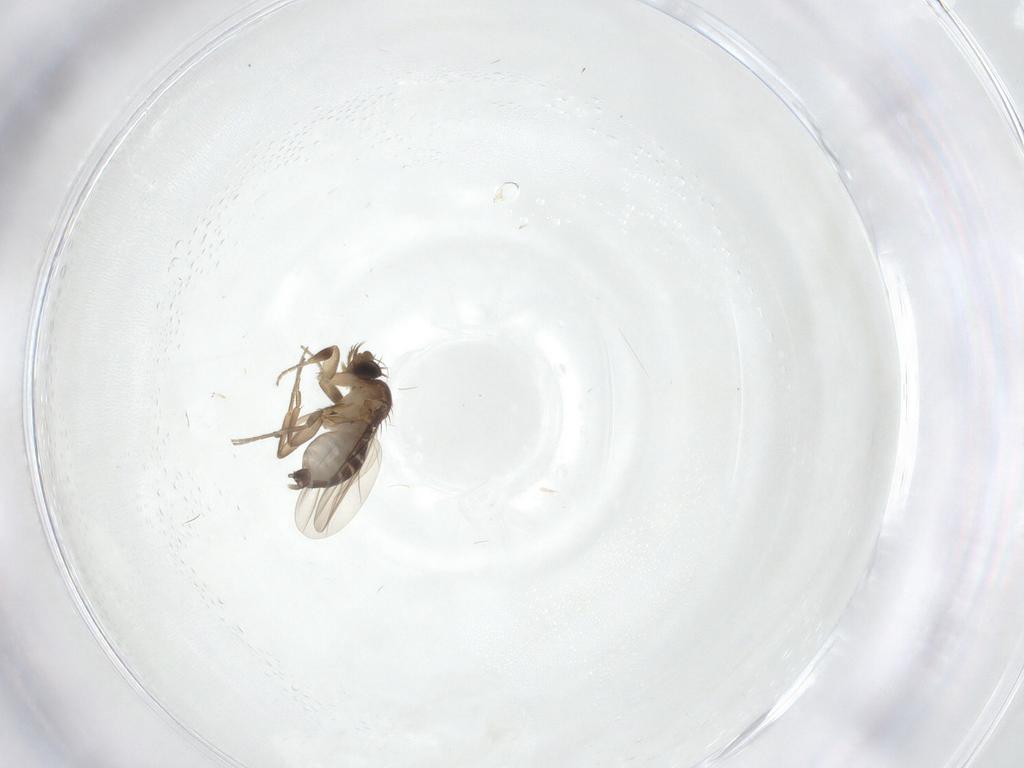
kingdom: Animalia
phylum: Arthropoda
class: Insecta
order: Diptera
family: Phoridae
